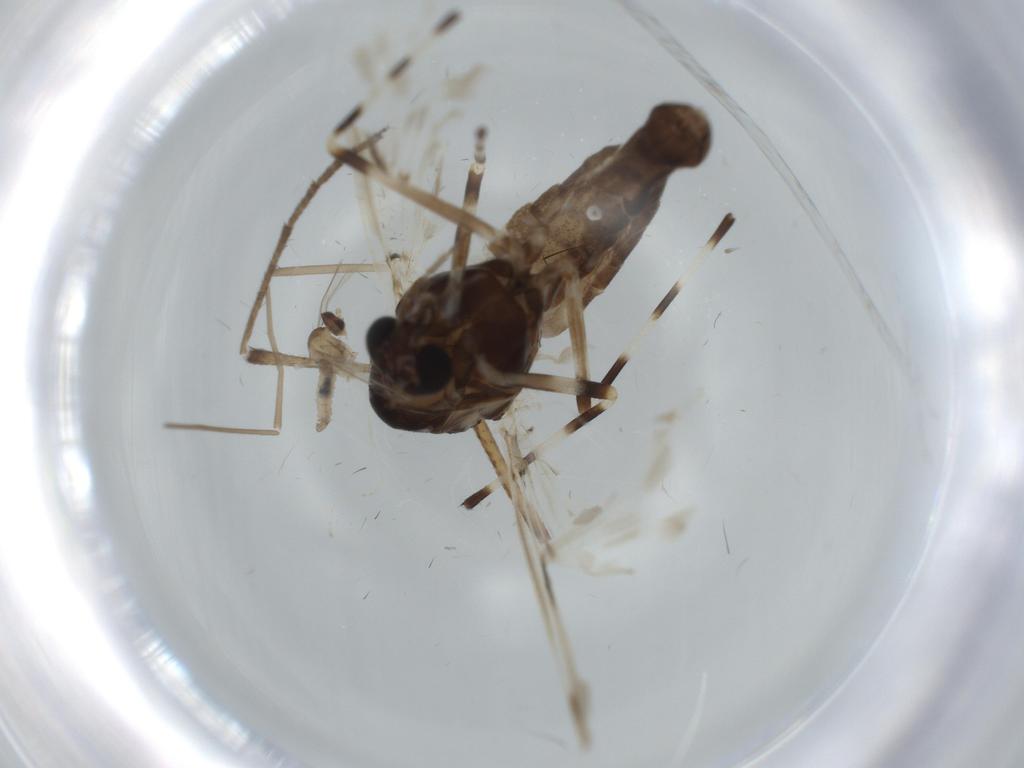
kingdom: Animalia
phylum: Arthropoda
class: Insecta
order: Diptera
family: Chironomidae
